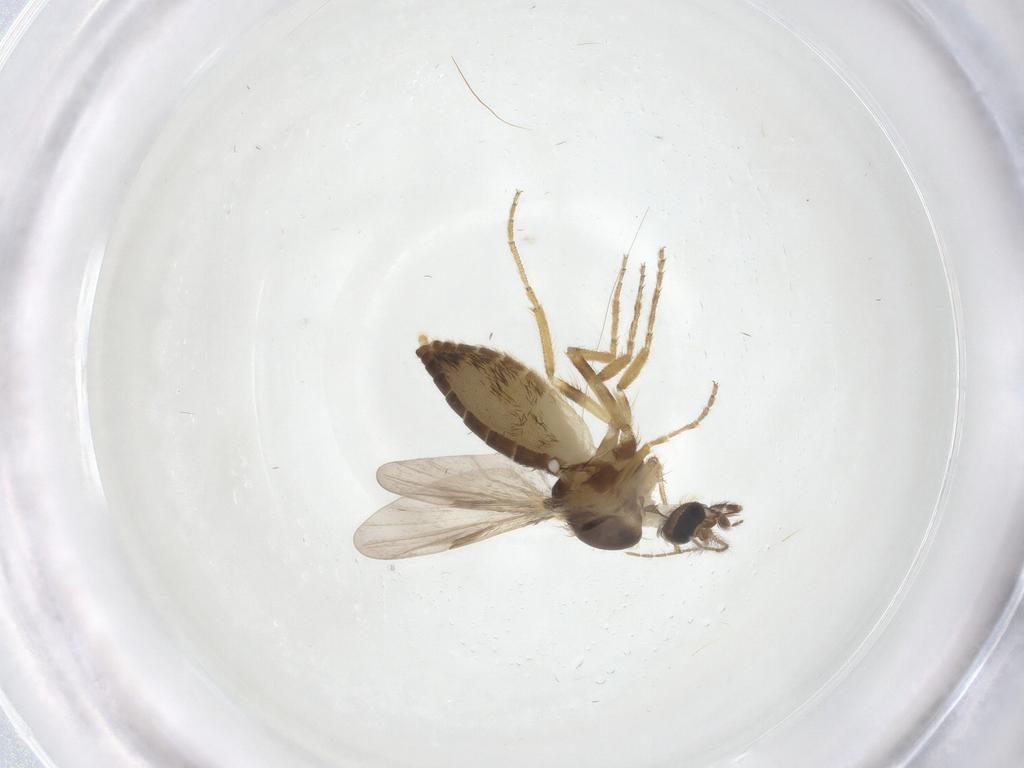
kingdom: Animalia
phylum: Arthropoda
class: Insecta
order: Diptera
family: Ceratopogonidae
